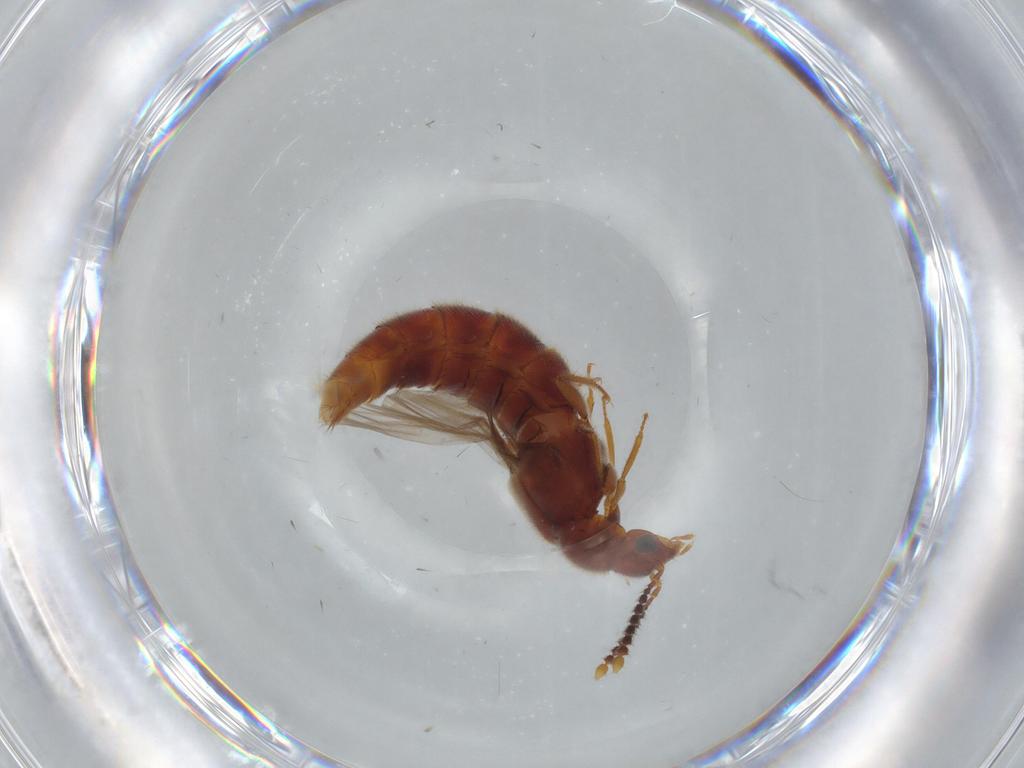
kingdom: Animalia
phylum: Arthropoda
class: Insecta
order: Coleoptera
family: Staphylinidae
